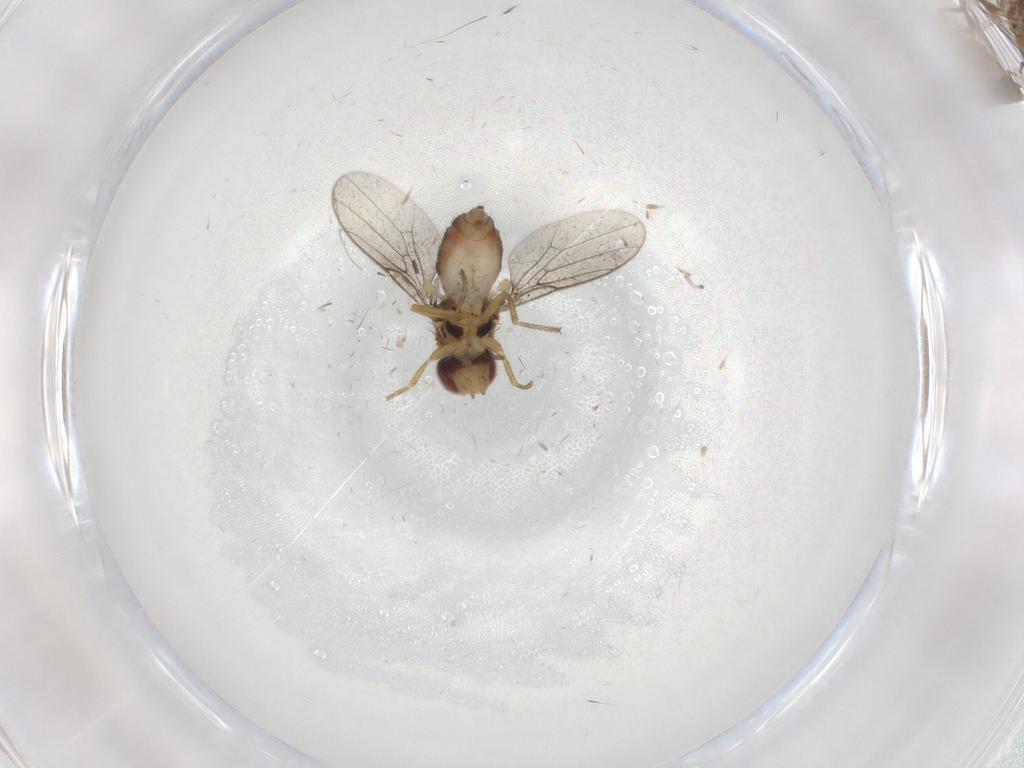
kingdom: Animalia
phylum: Arthropoda
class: Insecta
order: Diptera
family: Chloropidae
